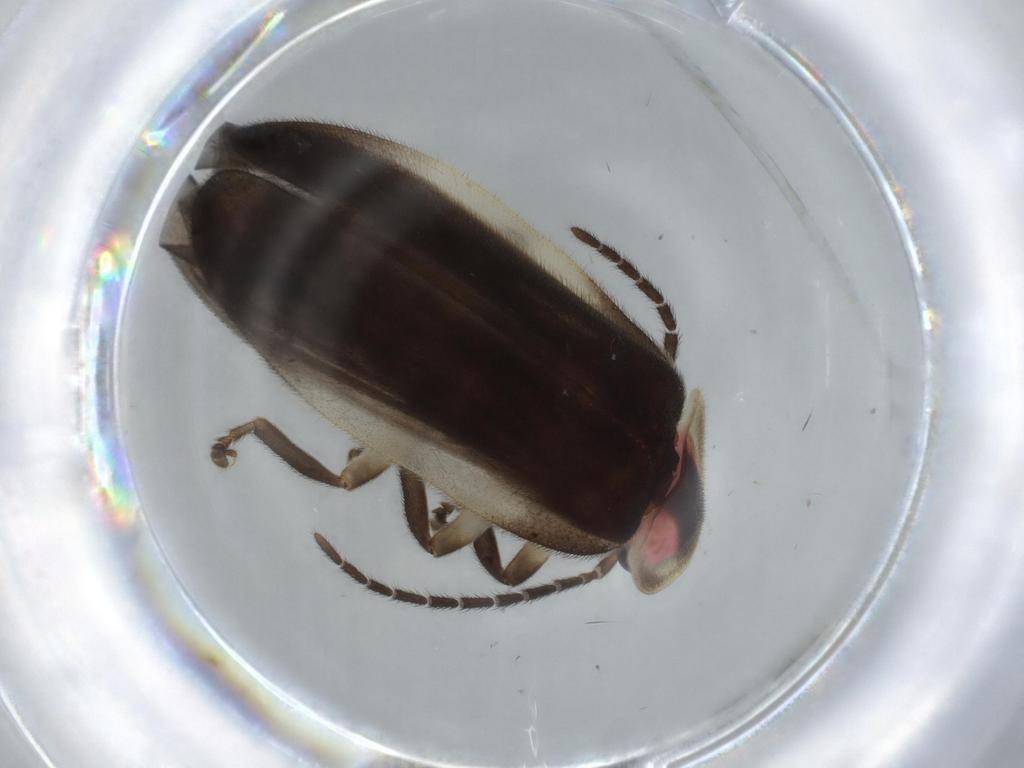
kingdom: Animalia
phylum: Arthropoda
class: Insecta
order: Coleoptera
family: Lampyridae
